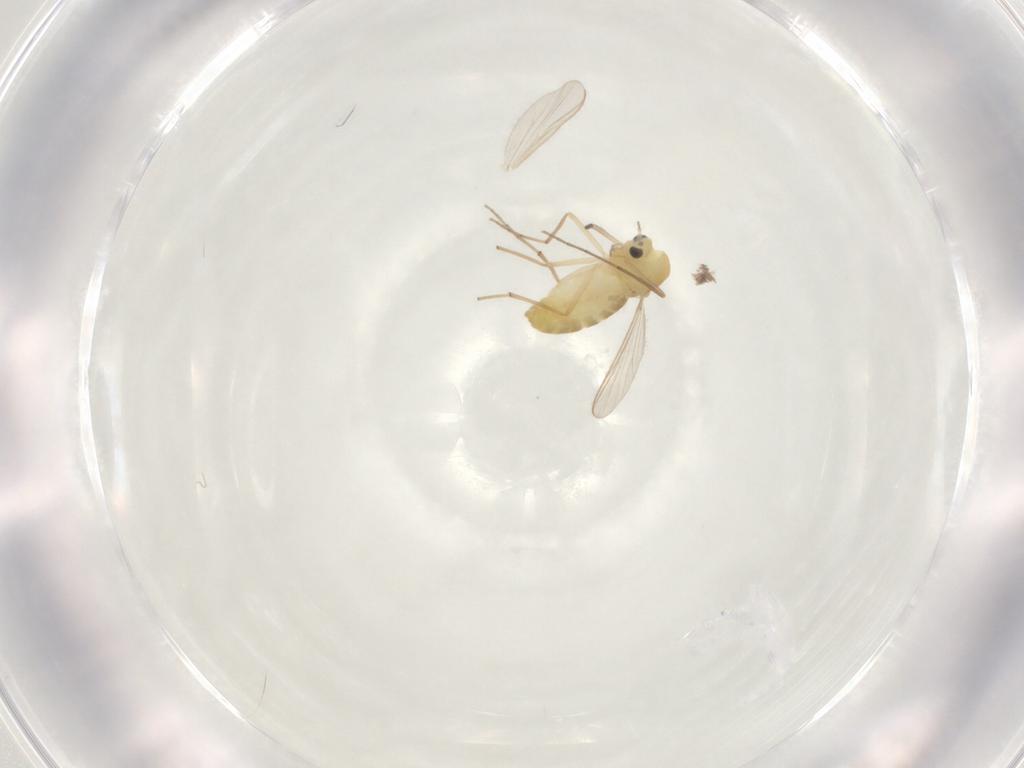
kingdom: Animalia
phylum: Arthropoda
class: Insecta
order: Diptera
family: Chironomidae
